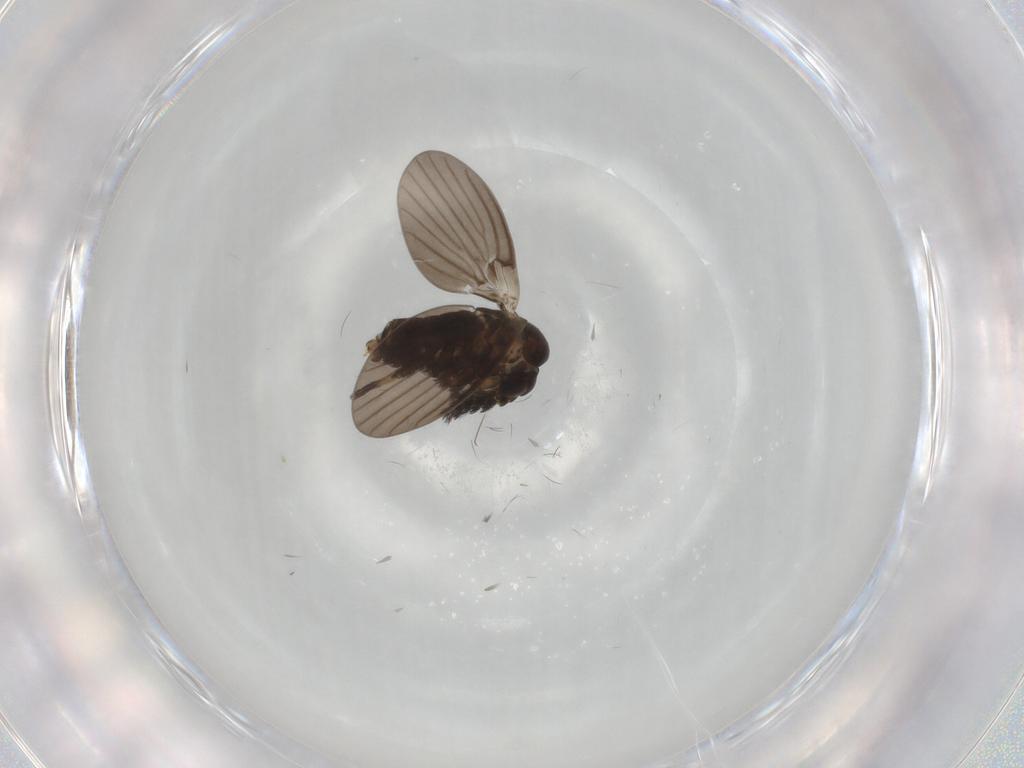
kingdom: Animalia
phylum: Arthropoda
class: Insecta
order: Diptera
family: Psychodidae
